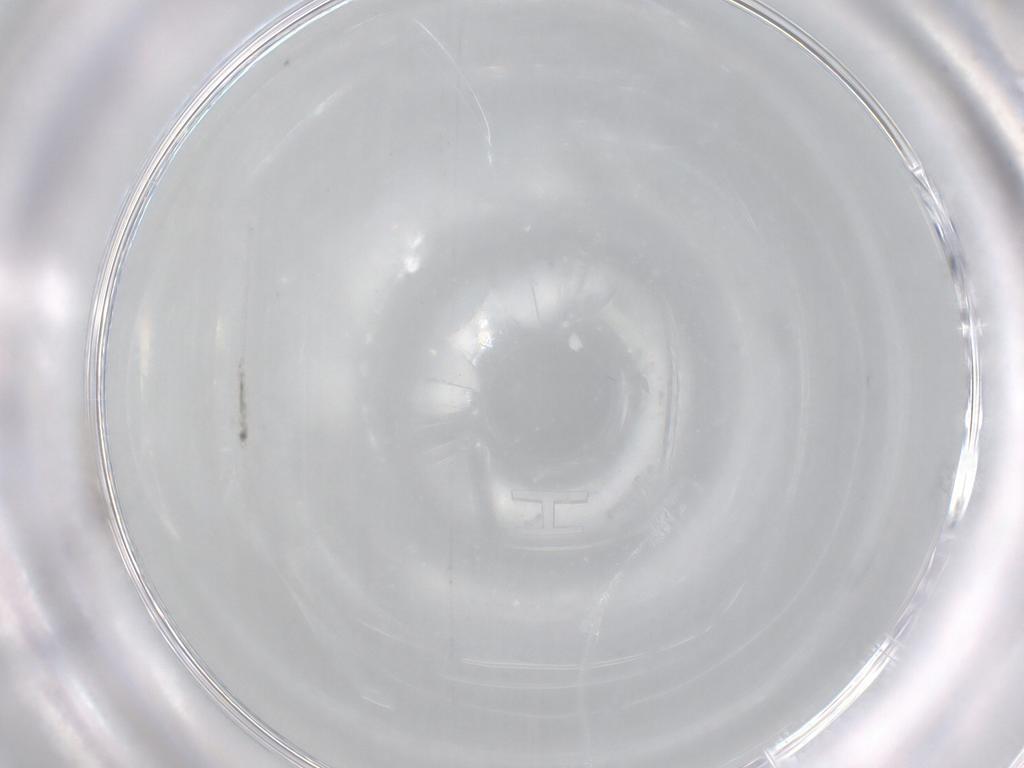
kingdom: Animalia
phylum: Arthropoda
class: Collembola
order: Symphypleona
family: Bourletiellidae
